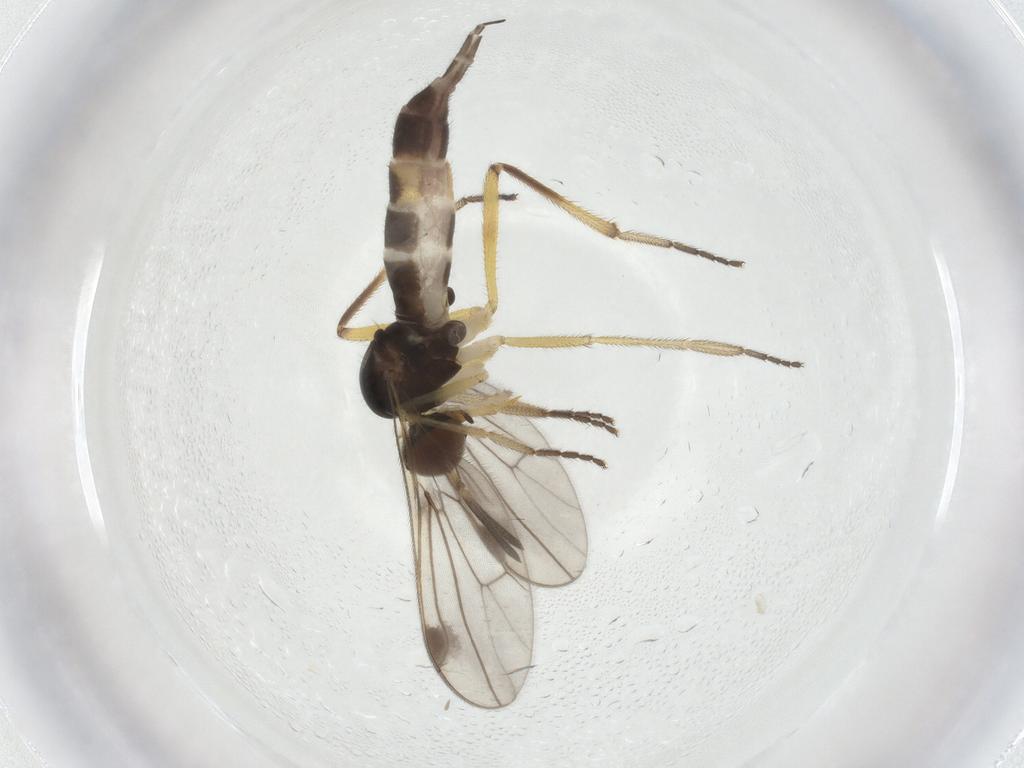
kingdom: Animalia
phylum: Arthropoda
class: Insecta
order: Diptera
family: Empididae
